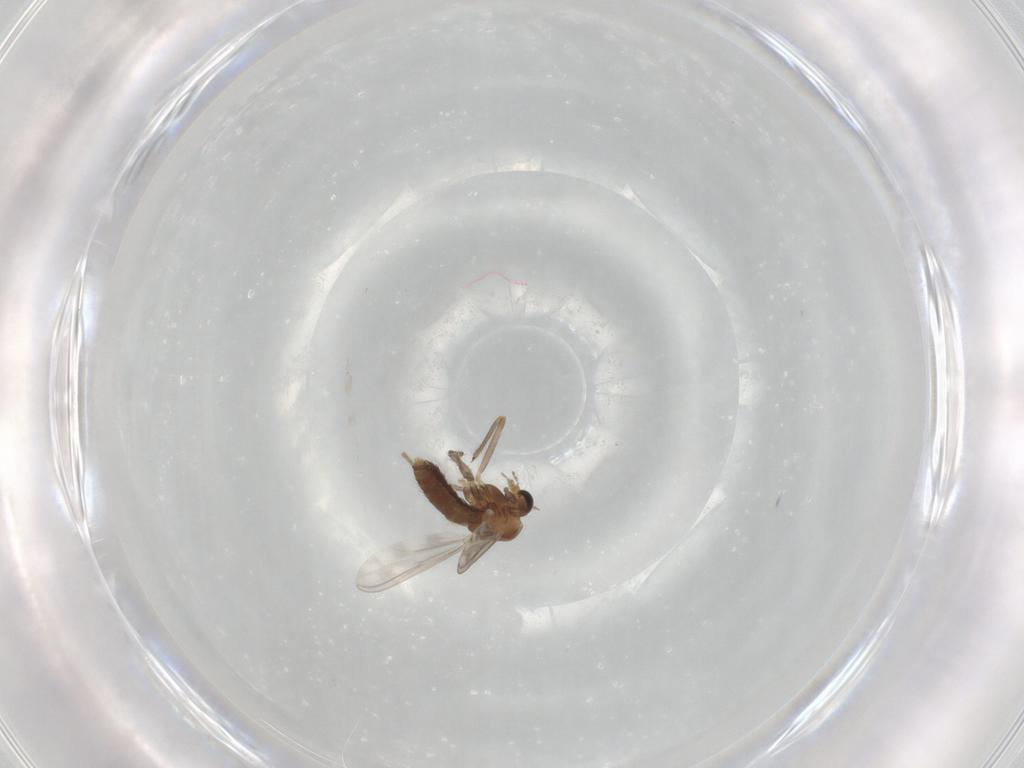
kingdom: Animalia
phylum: Arthropoda
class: Insecta
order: Diptera
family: Chironomidae
